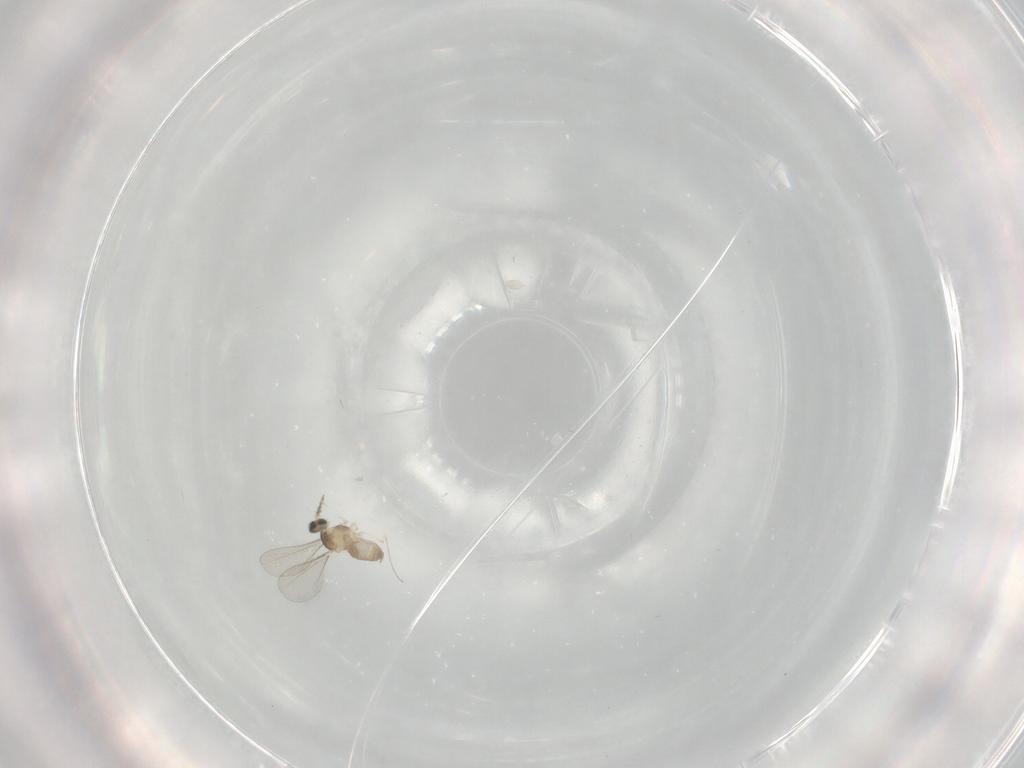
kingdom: Animalia
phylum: Arthropoda
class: Insecta
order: Diptera
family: Cecidomyiidae
